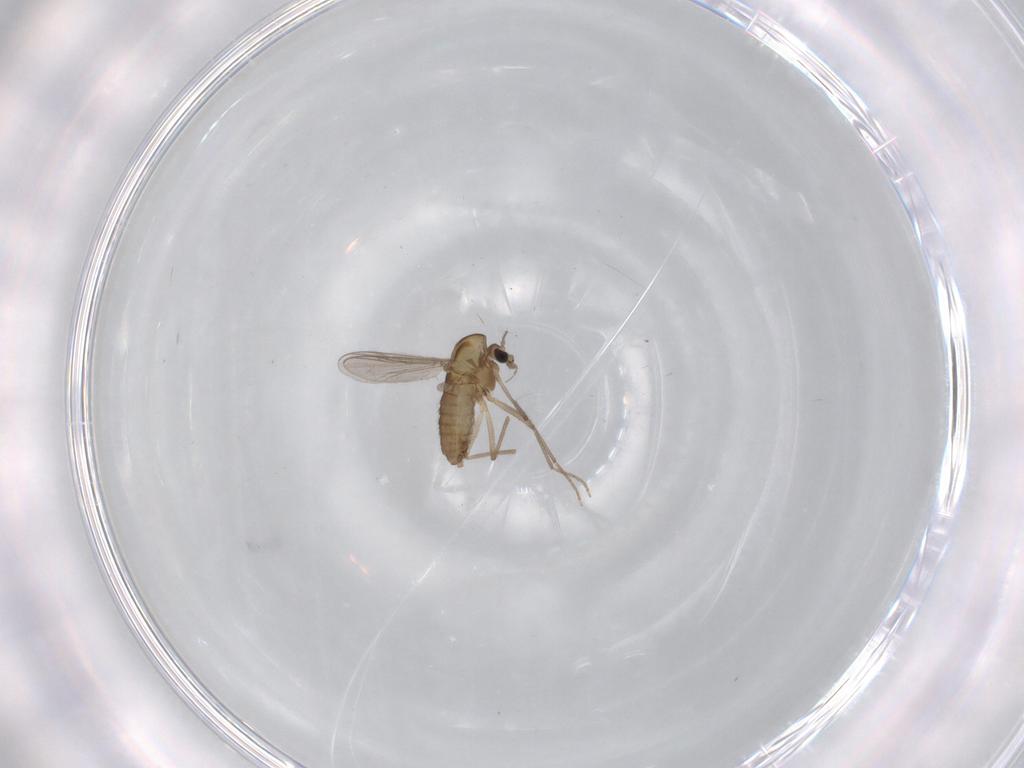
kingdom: Animalia
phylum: Arthropoda
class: Insecta
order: Diptera
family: Chironomidae
